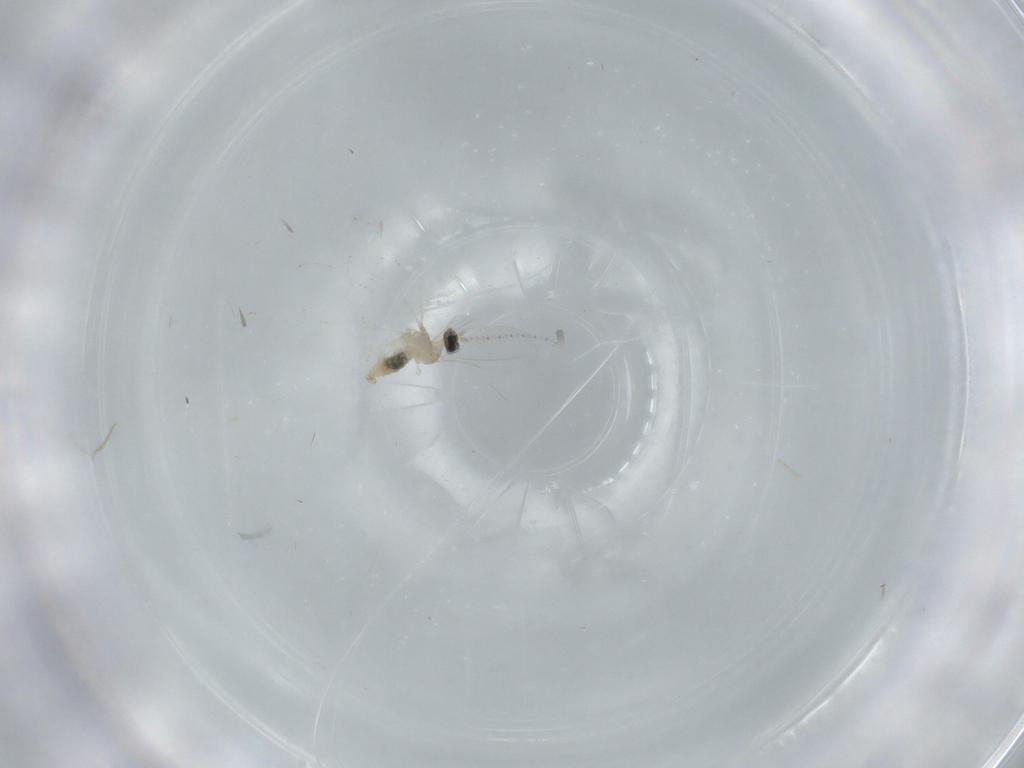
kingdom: Animalia
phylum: Arthropoda
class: Insecta
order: Diptera
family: Cecidomyiidae
